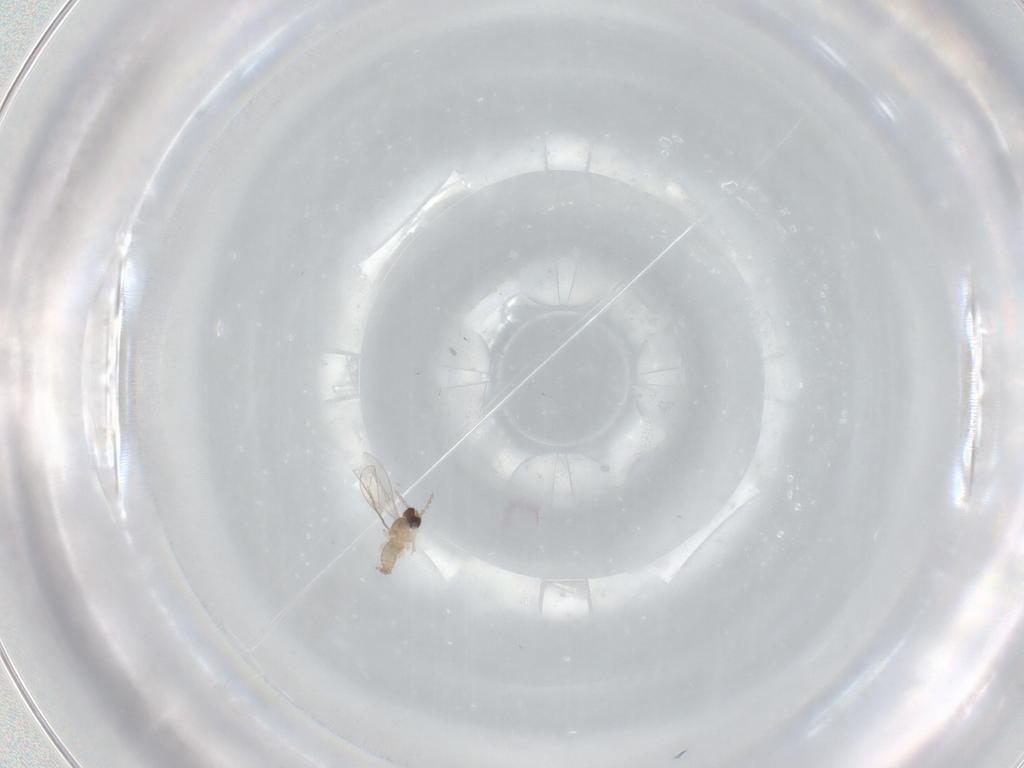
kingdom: Animalia
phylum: Arthropoda
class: Insecta
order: Diptera
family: Cecidomyiidae
